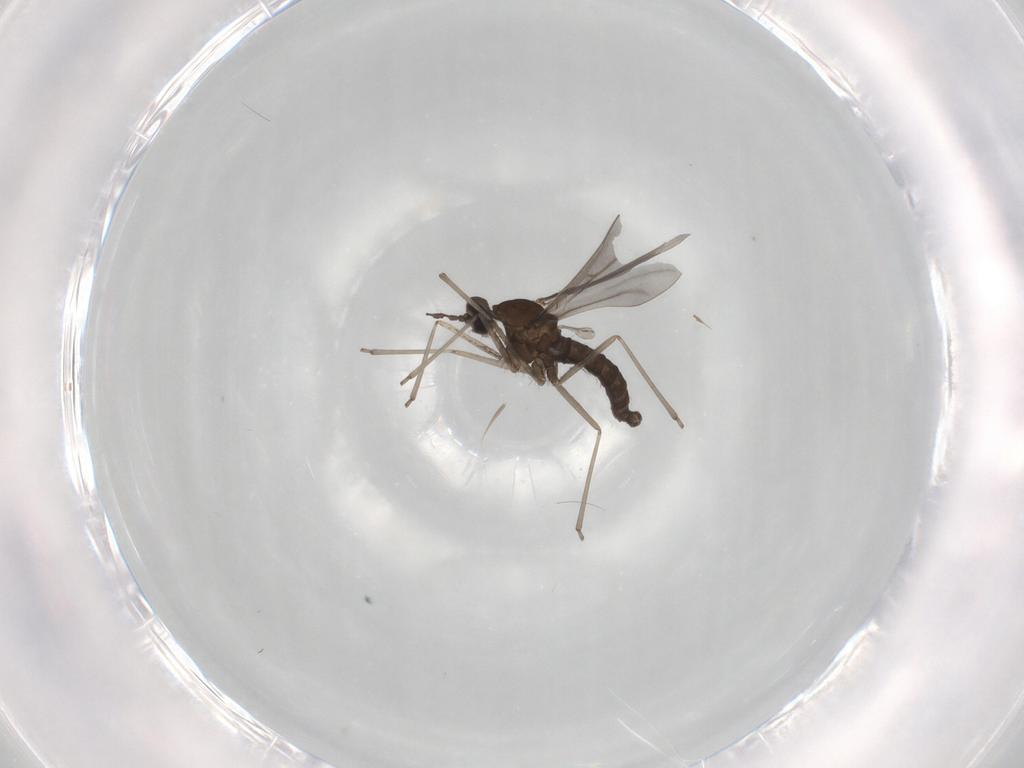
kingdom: Animalia
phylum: Arthropoda
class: Insecta
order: Diptera
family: Cecidomyiidae
